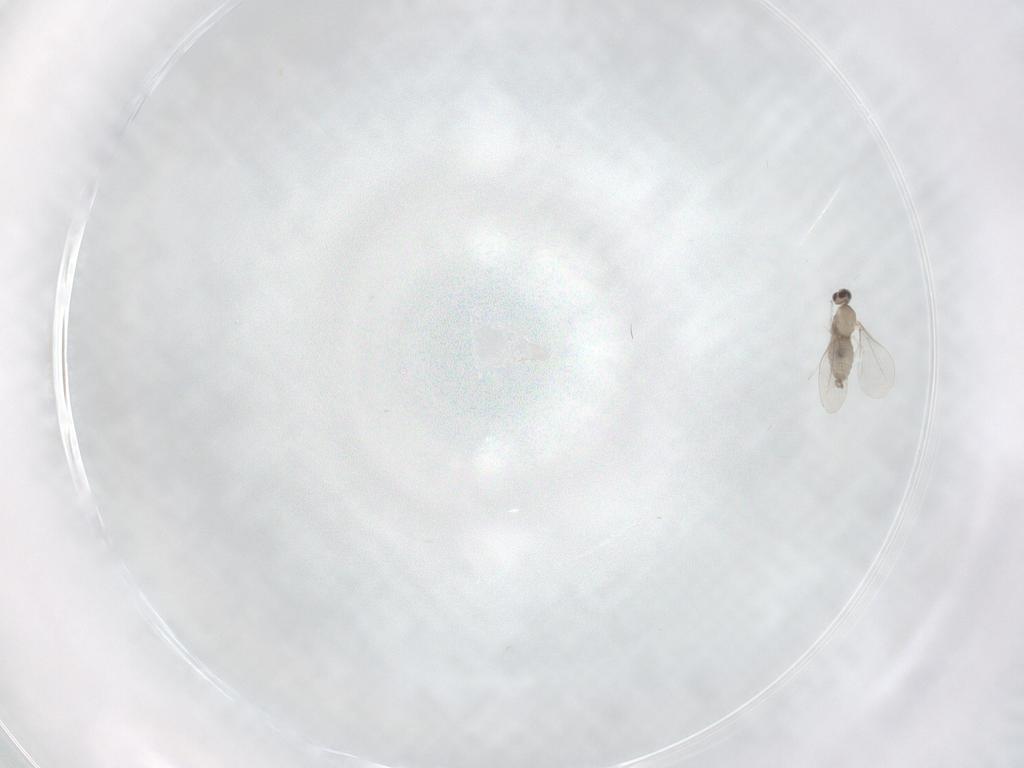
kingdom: Animalia
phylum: Arthropoda
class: Insecta
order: Diptera
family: Cecidomyiidae
